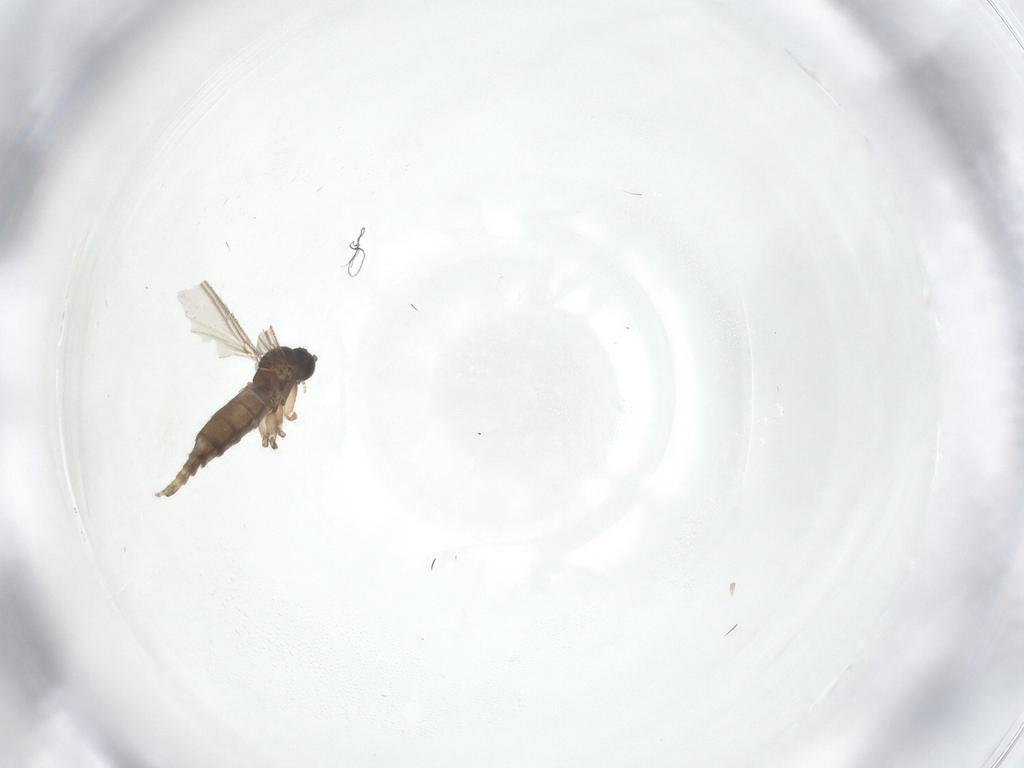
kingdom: Animalia
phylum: Arthropoda
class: Insecta
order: Diptera
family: Sciaridae
